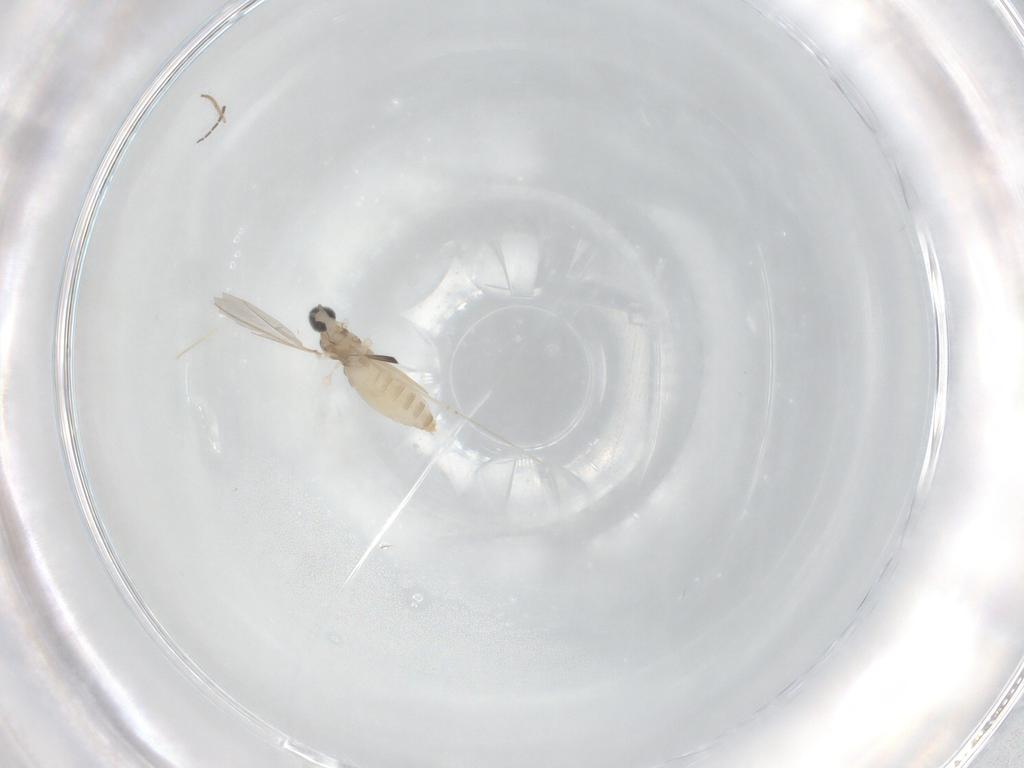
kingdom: Animalia
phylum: Arthropoda
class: Insecta
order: Diptera
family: Cecidomyiidae
